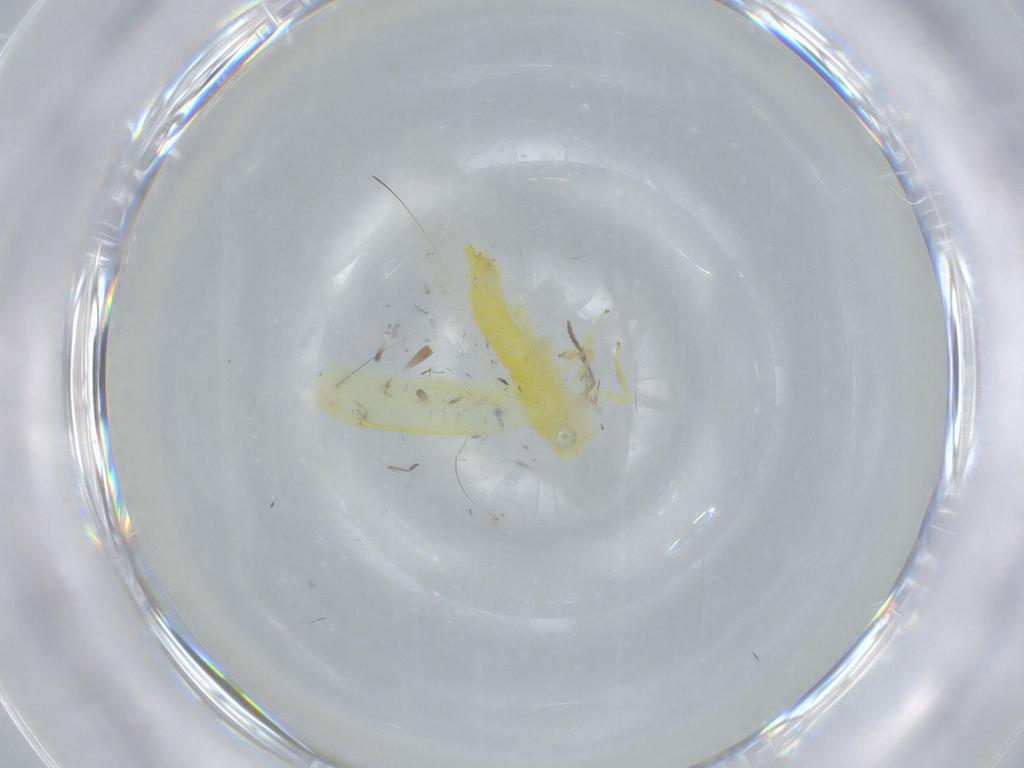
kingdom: Animalia
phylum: Arthropoda
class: Insecta
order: Hemiptera
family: Cicadellidae
